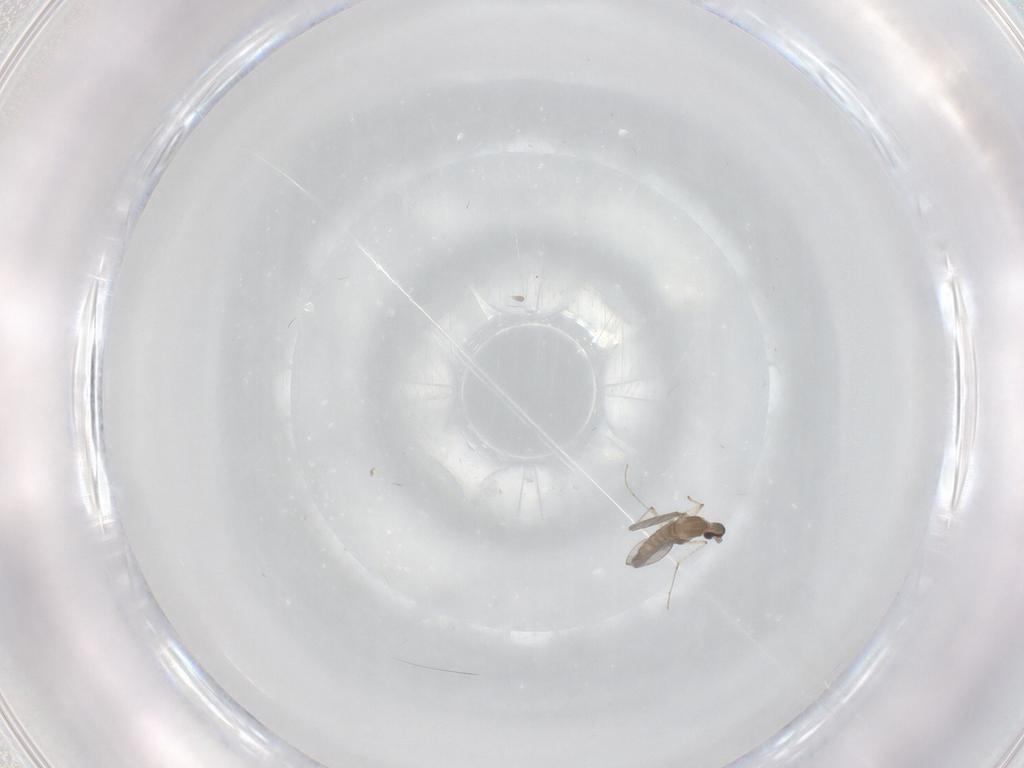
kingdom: Animalia
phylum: Arthropoda
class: Insecta
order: Diptera
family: Cecidomyiidae
